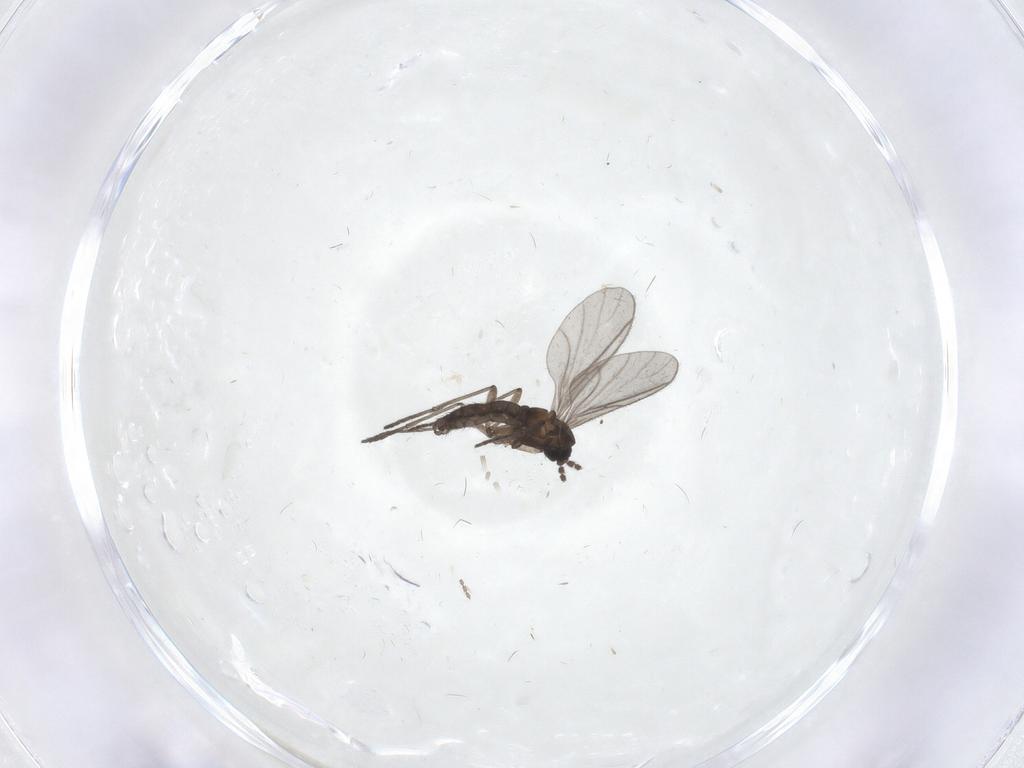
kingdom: Animalia
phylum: Arthropoda
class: Insecta
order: Diptera
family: Sciaridae
